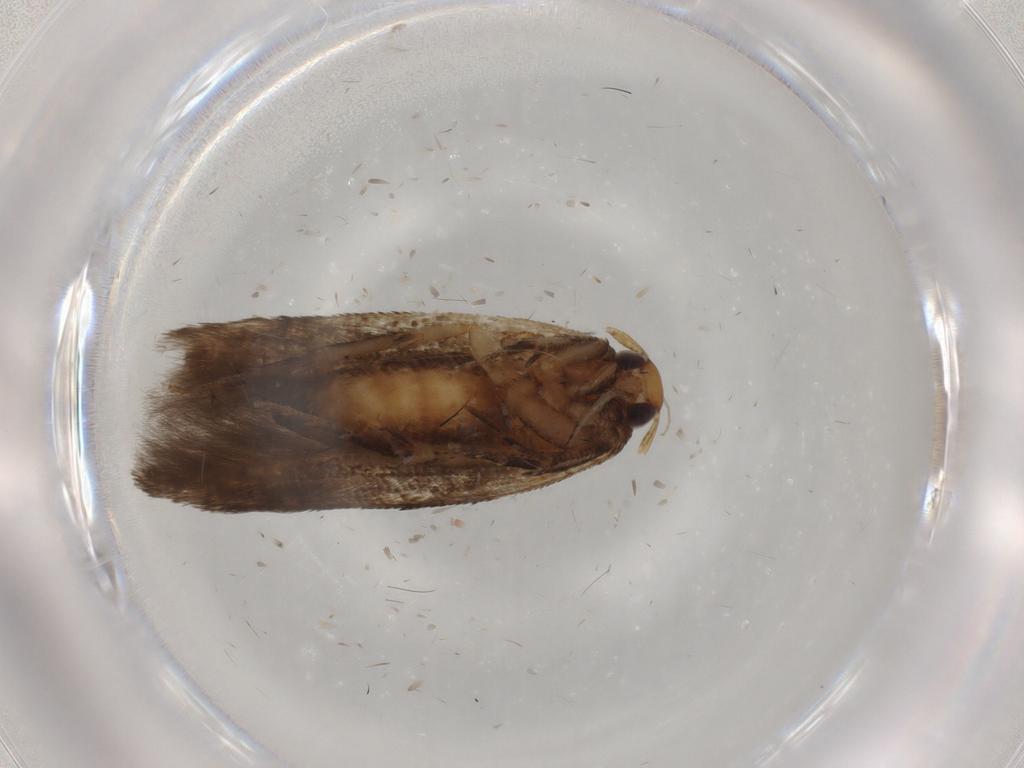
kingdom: Animalia
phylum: Arthropoda
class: Insecta
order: Lepidoptera
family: Cosmopterigidae
